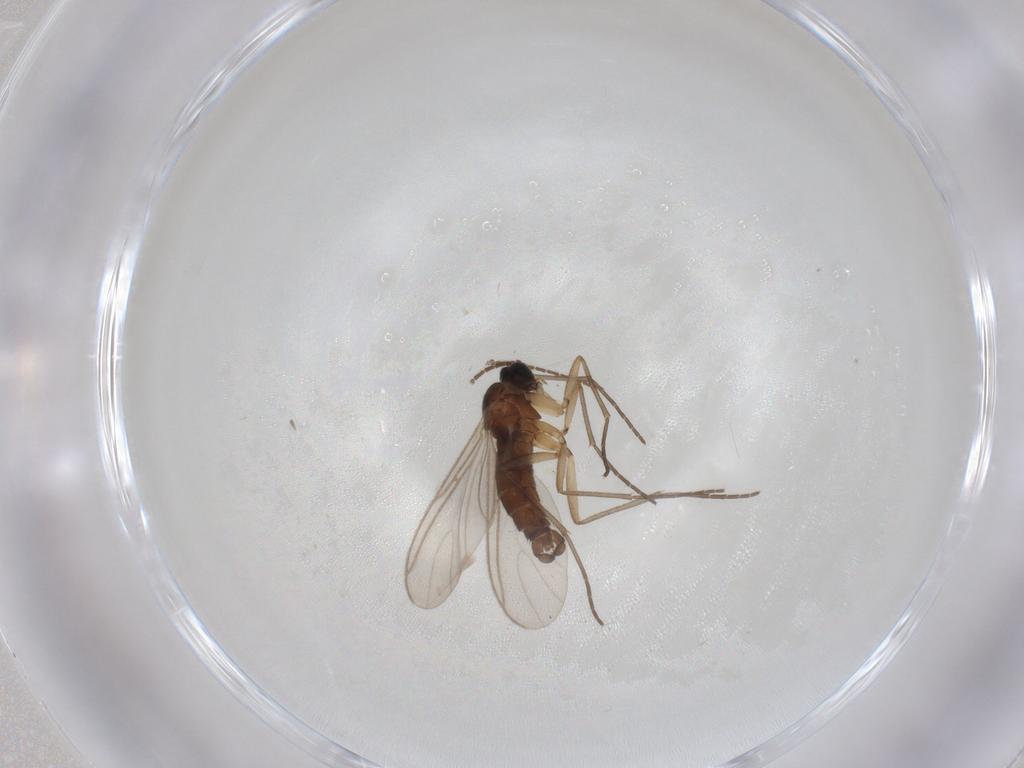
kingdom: Animalia
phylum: Arthropoda
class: Insecta
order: Diptera
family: Sciaridae
